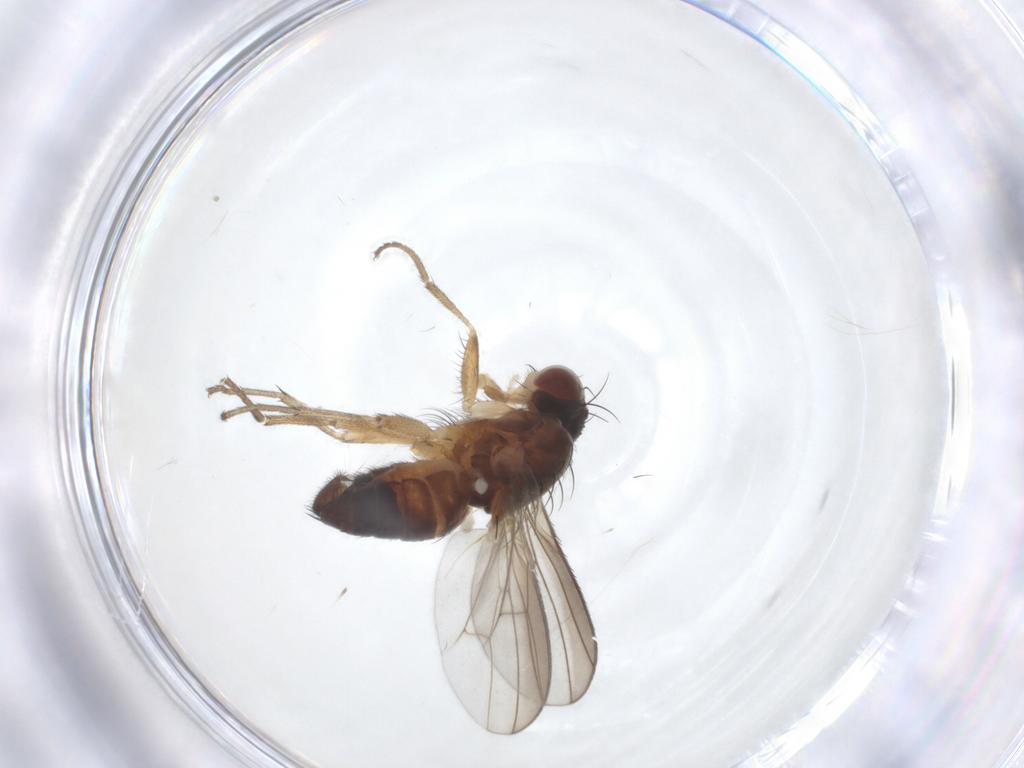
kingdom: Animalia
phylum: Arthropoda
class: Insecta
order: Diptera
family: Heleomyzidae
